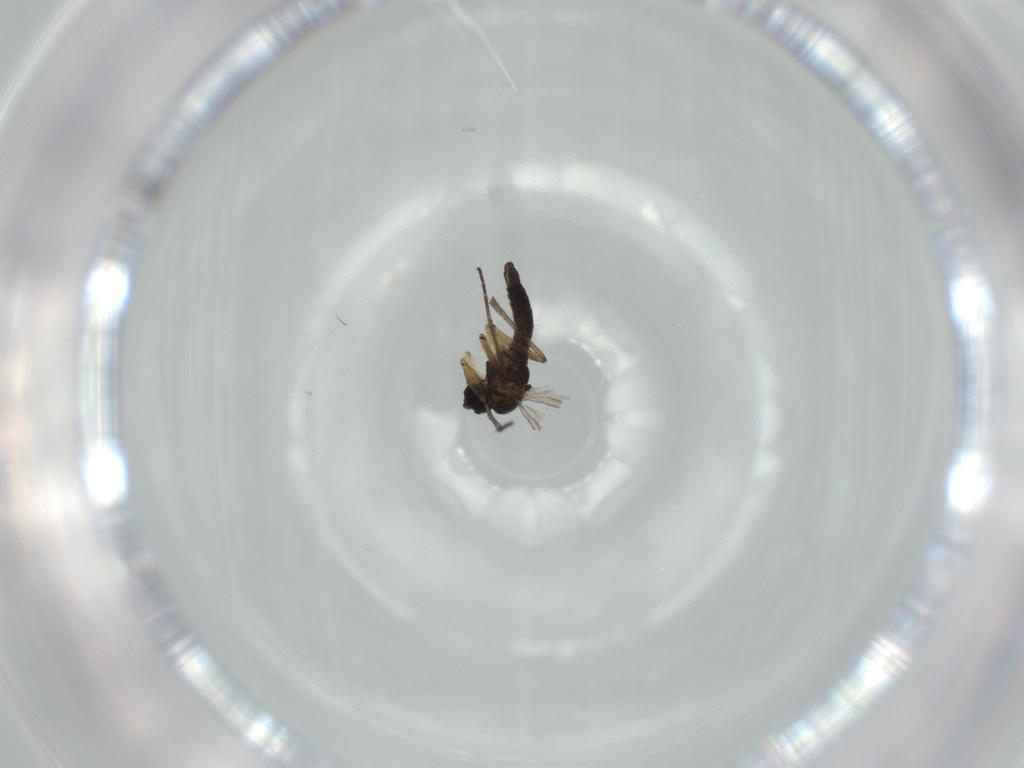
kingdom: Animalia
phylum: Arthropoda
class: Insecta
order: Diptera
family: Sciaridae
